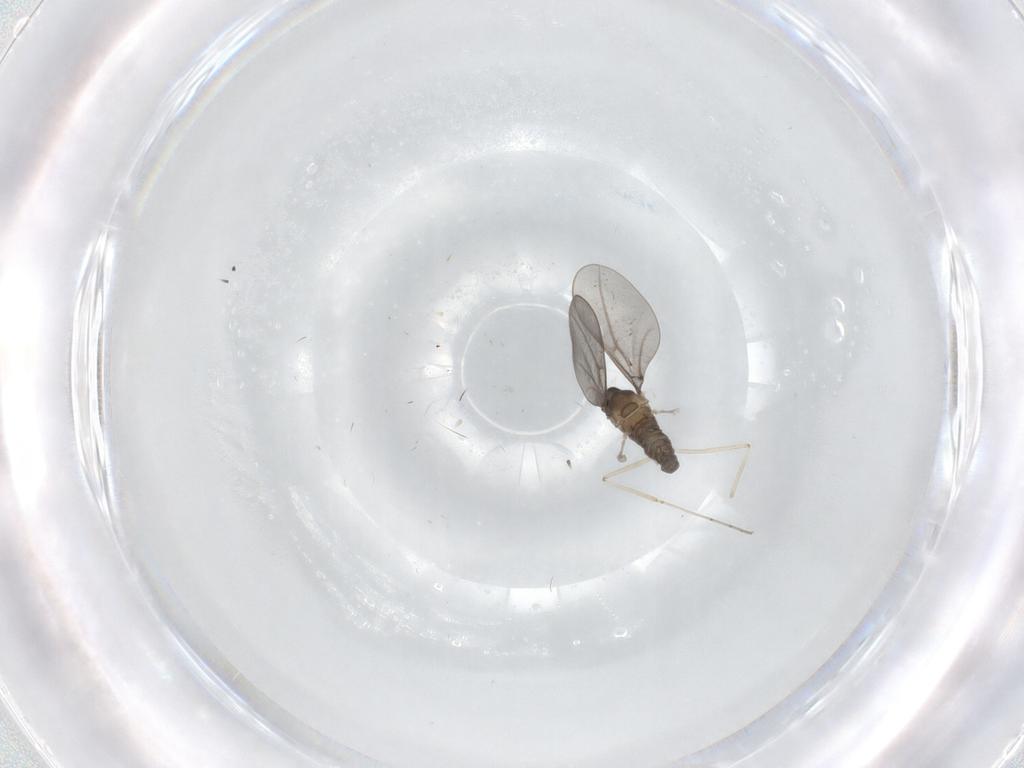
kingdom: Animalia
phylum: Arthropoda
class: Insecta
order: Diptera
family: Cecidomyiidae
